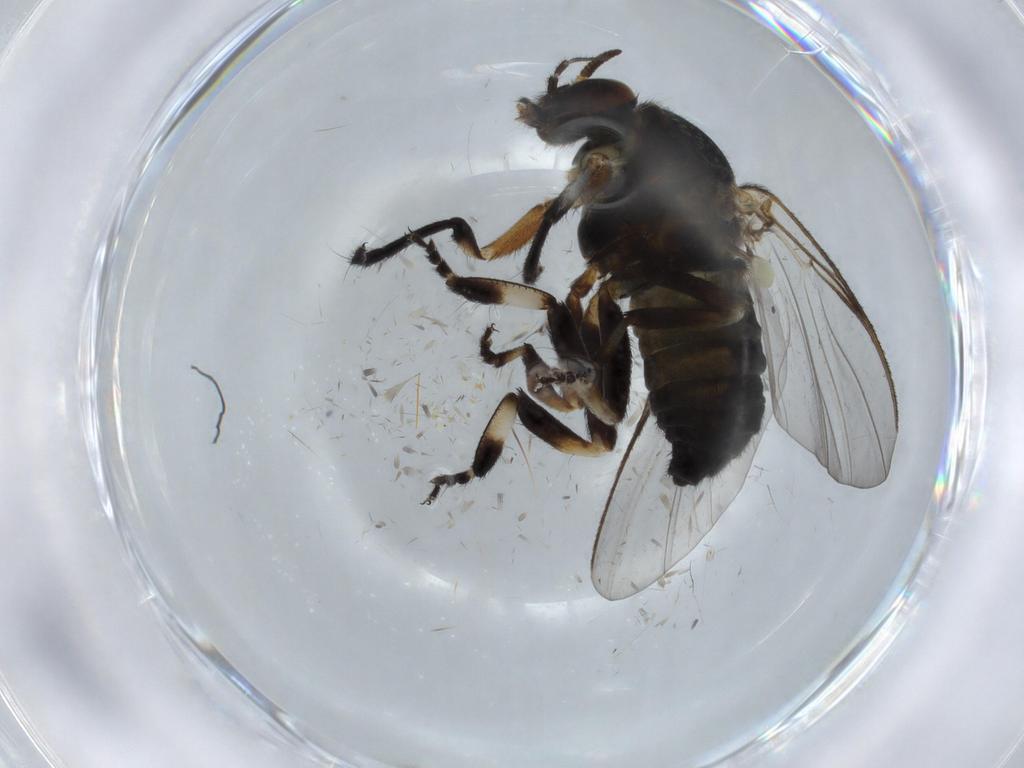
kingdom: Animalia
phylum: Arthropoda
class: Insecta
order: Diptera
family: Sciaridae
